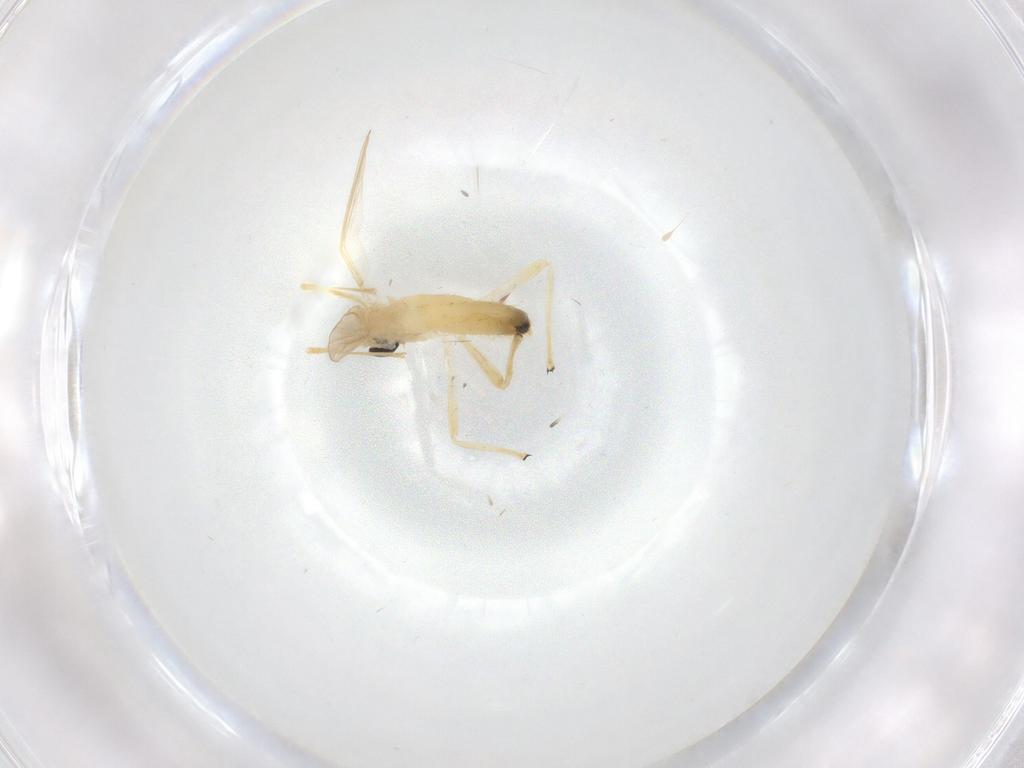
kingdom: Animalia
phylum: Arthropoda
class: Insecta
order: Diptera
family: Chironomidae
